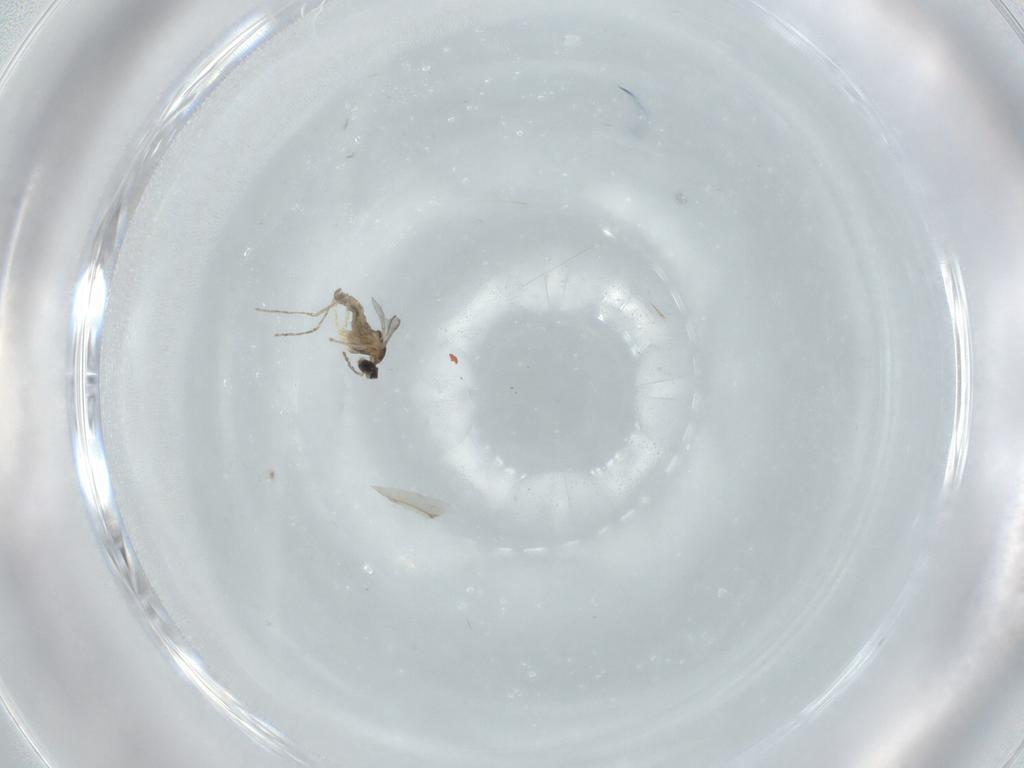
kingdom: Animalia
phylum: Arthropoda
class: Insecta
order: Diptera
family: Cecidomyiidae
